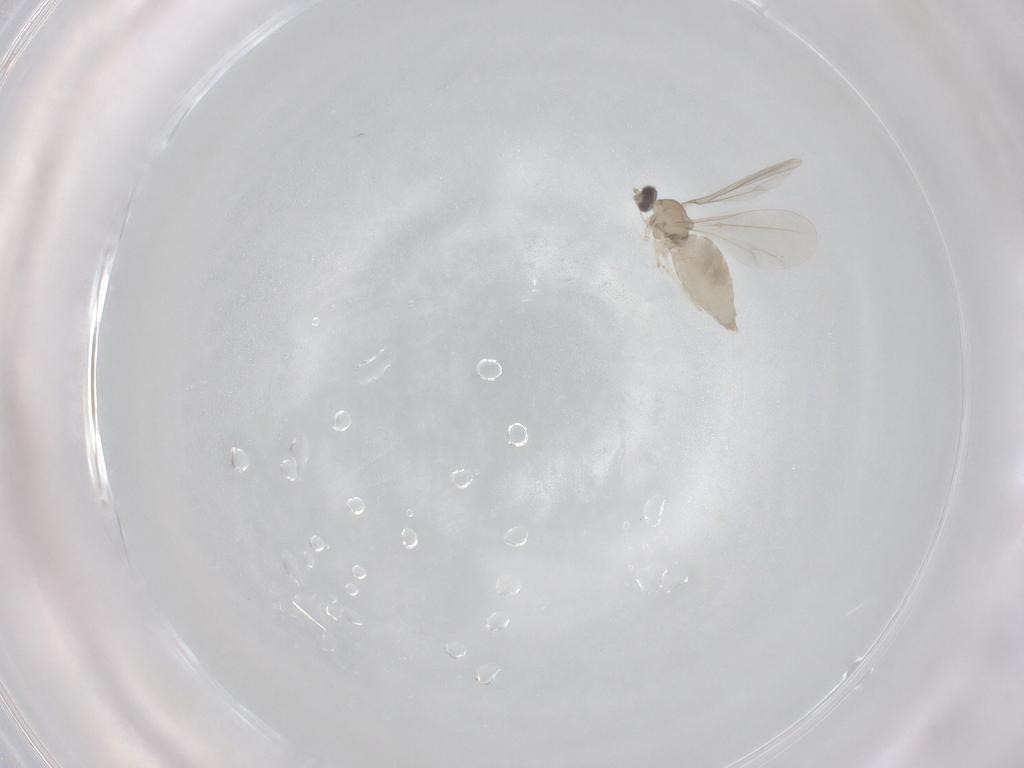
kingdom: Animalia
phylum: Arthropoda
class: Insecta
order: Diptera
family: Cecidomyiidae
